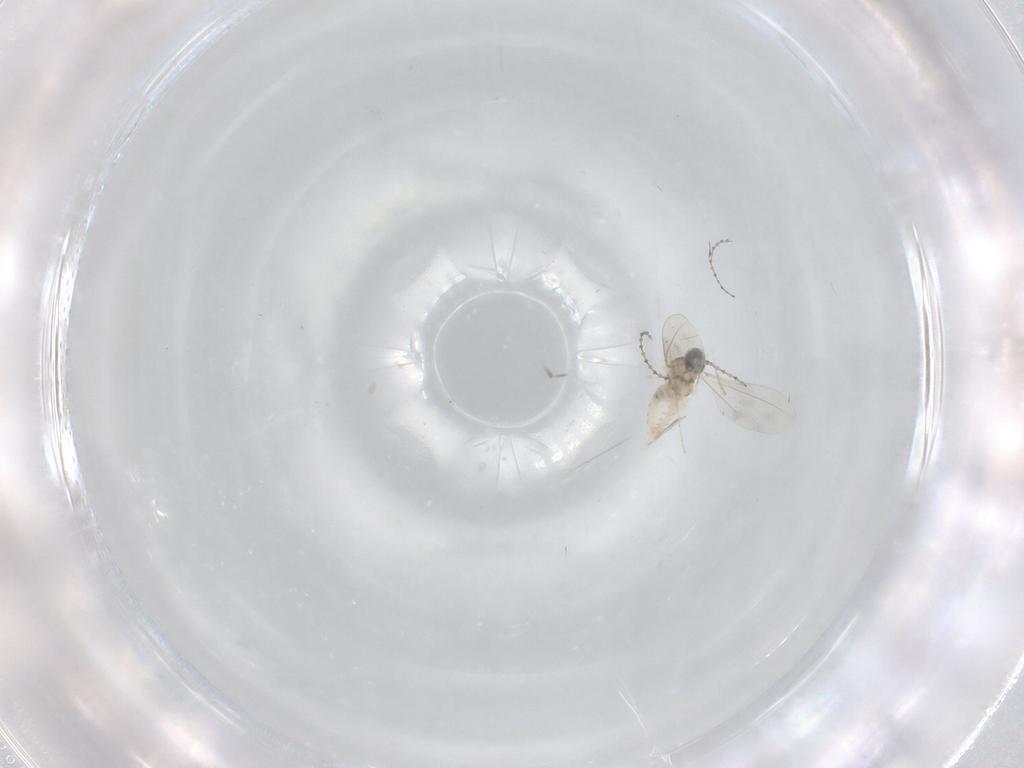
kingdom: Animalia
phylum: Arthropoda
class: Insecta
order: Diptera
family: Cecidomyiidae
